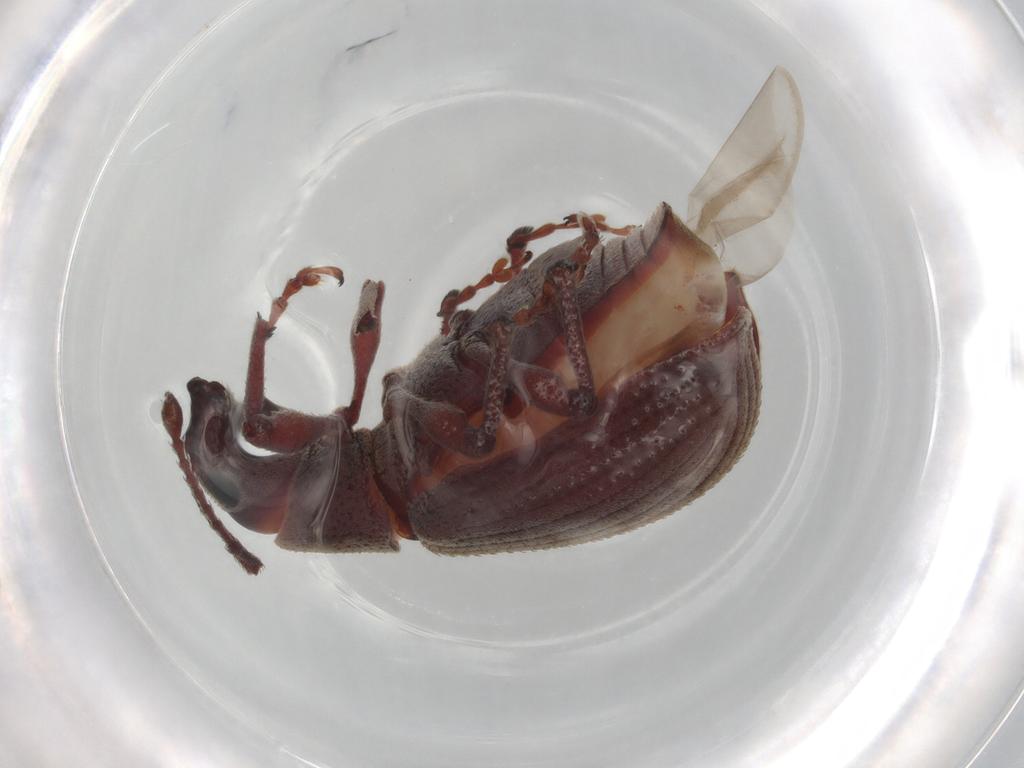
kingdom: Animalia
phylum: Arthropoda
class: Insecta
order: Coleoptera
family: Curculionidae
